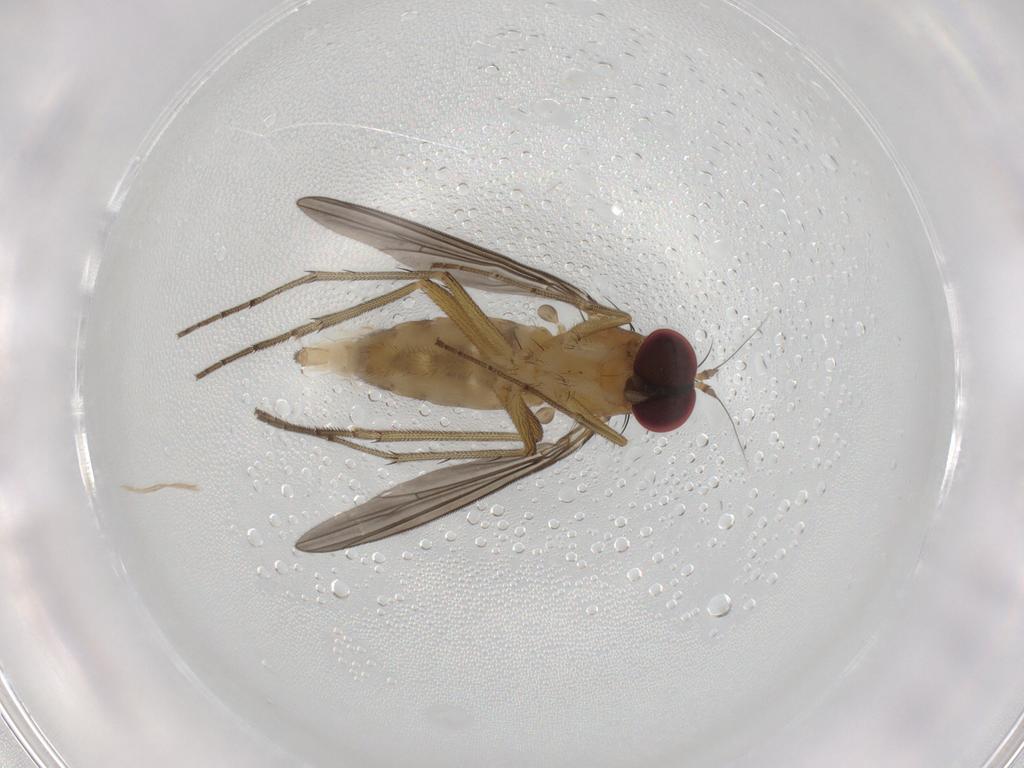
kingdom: Animalia
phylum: Arthropoda
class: Insecta
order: Diptera
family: Dolichopodidae
